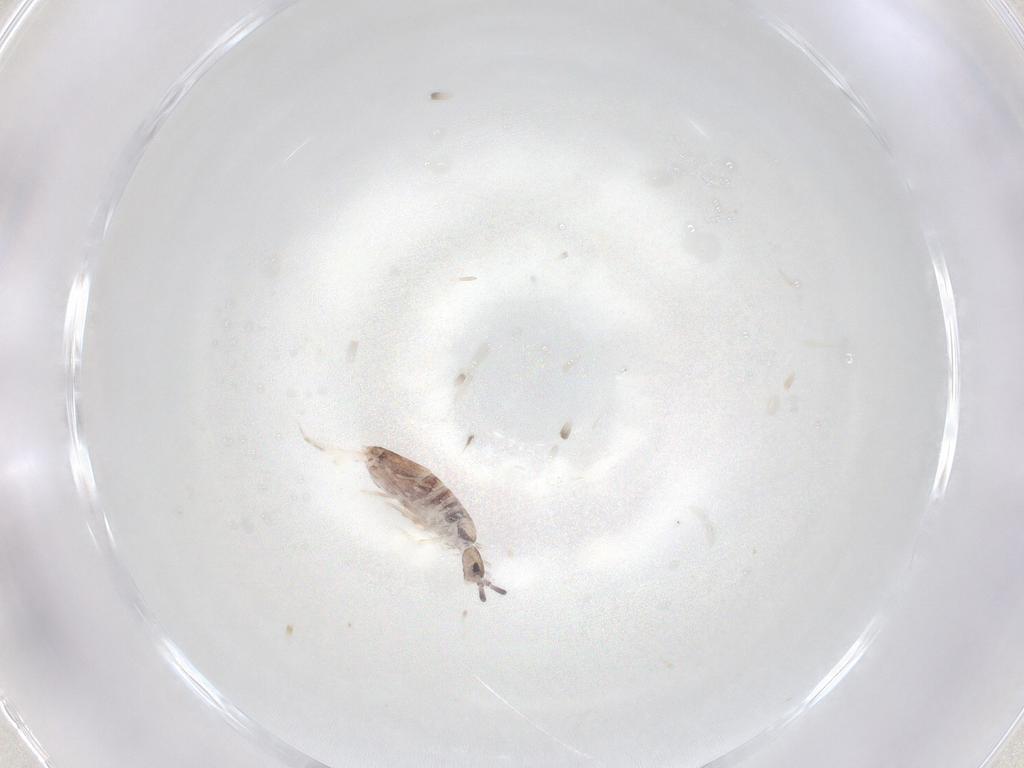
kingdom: Animalia
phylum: Arthropoda
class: Collembola
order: Poduromorpha
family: Hypogastruridae
